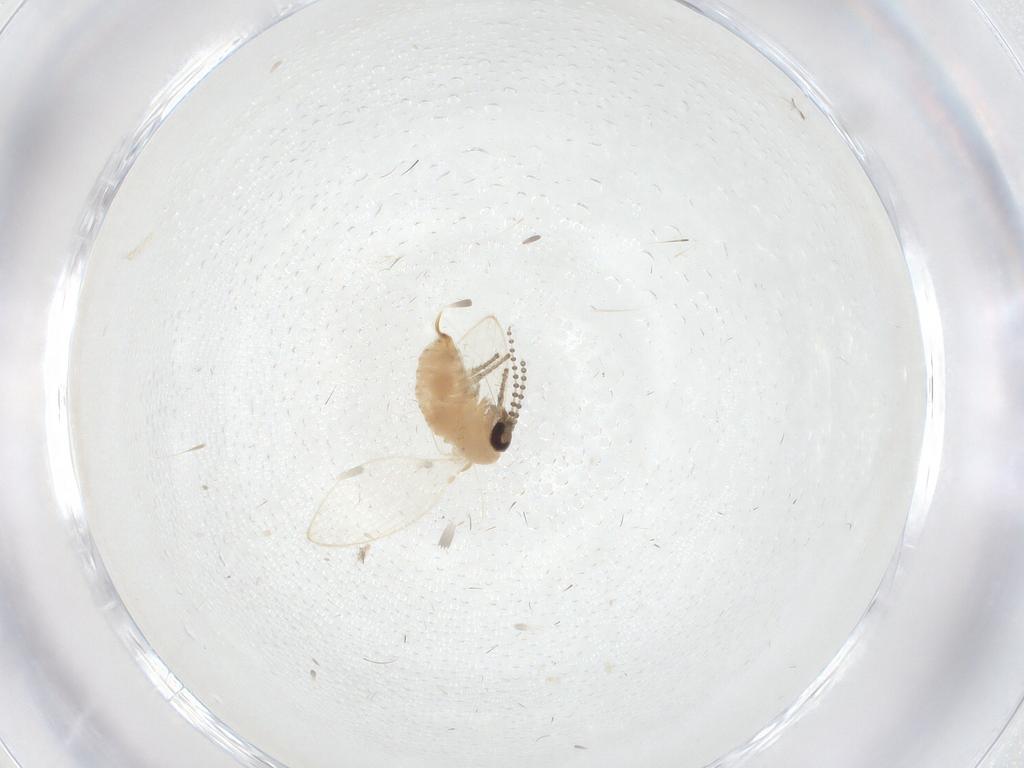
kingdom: Animalia
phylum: Arthropoda
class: Insecta
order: Diptera
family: Psychodidae
